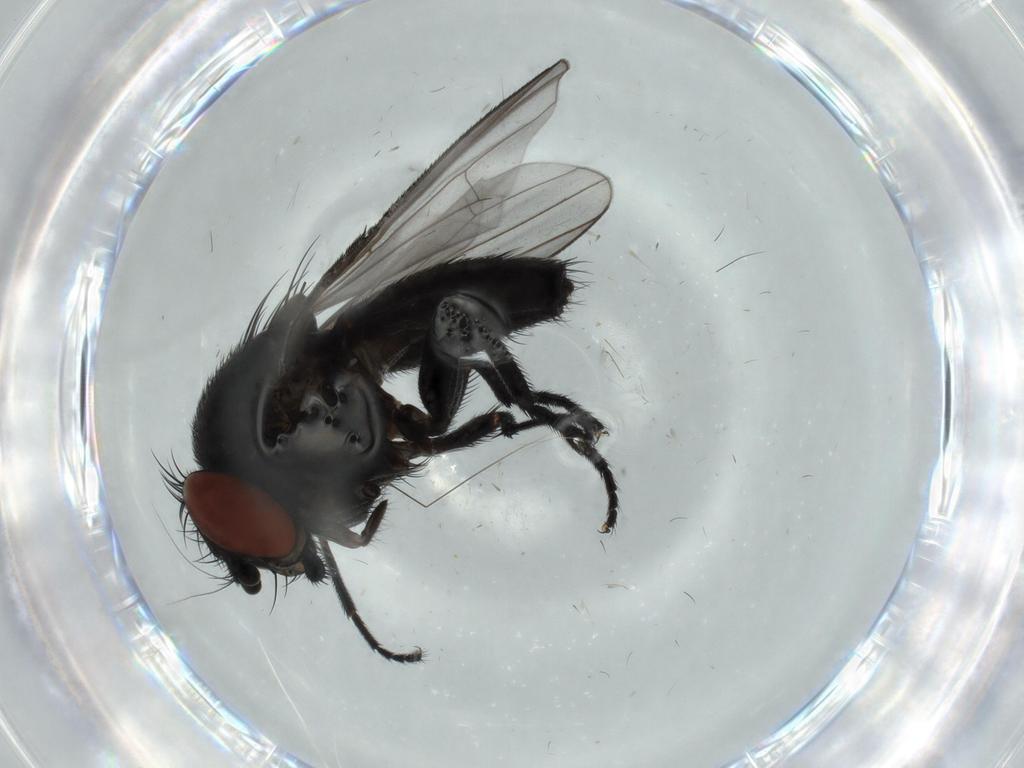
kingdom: Animalia
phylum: Arthropoda
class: Insecta
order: Diptera
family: Milichiidae
